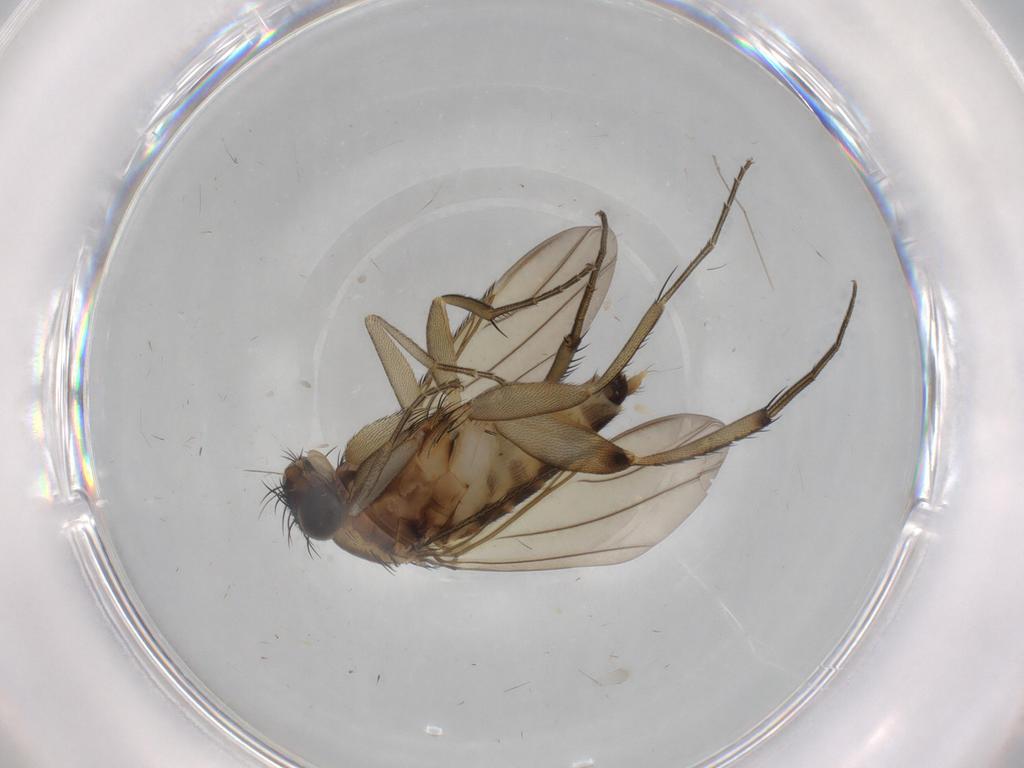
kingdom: Animalia
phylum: Arthropoda
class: Insecta
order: Diptera
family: Phoridae
